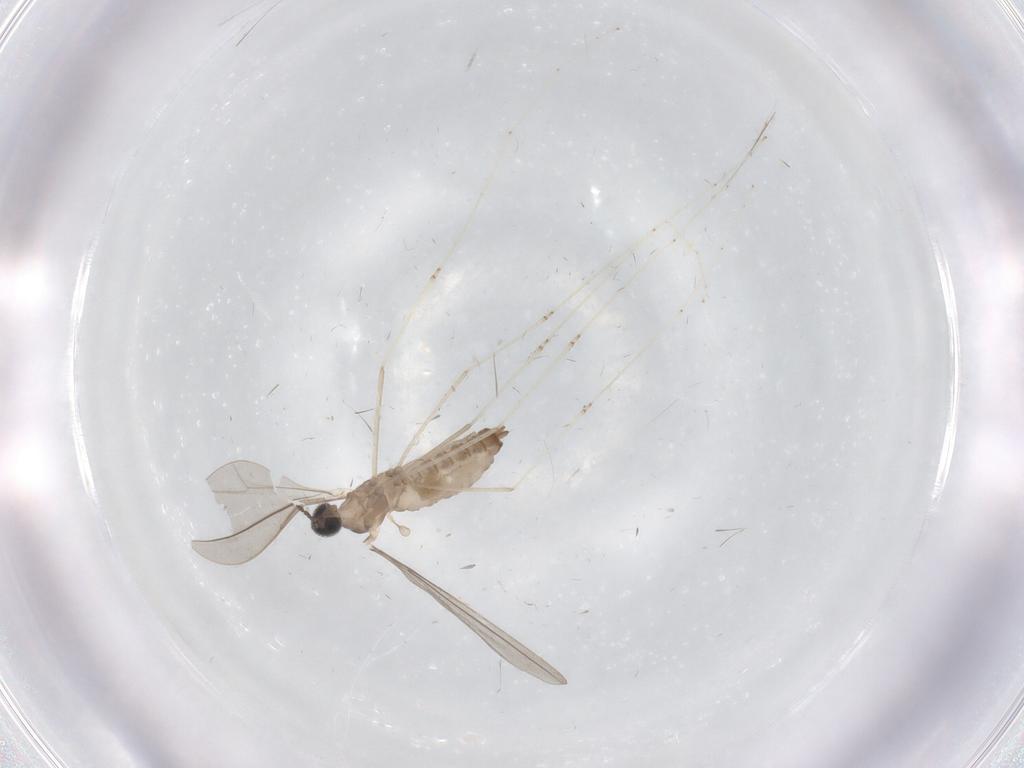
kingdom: Animalia
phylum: Arthropoda
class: Insecta
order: Diptera
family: Cecidomyiidae
